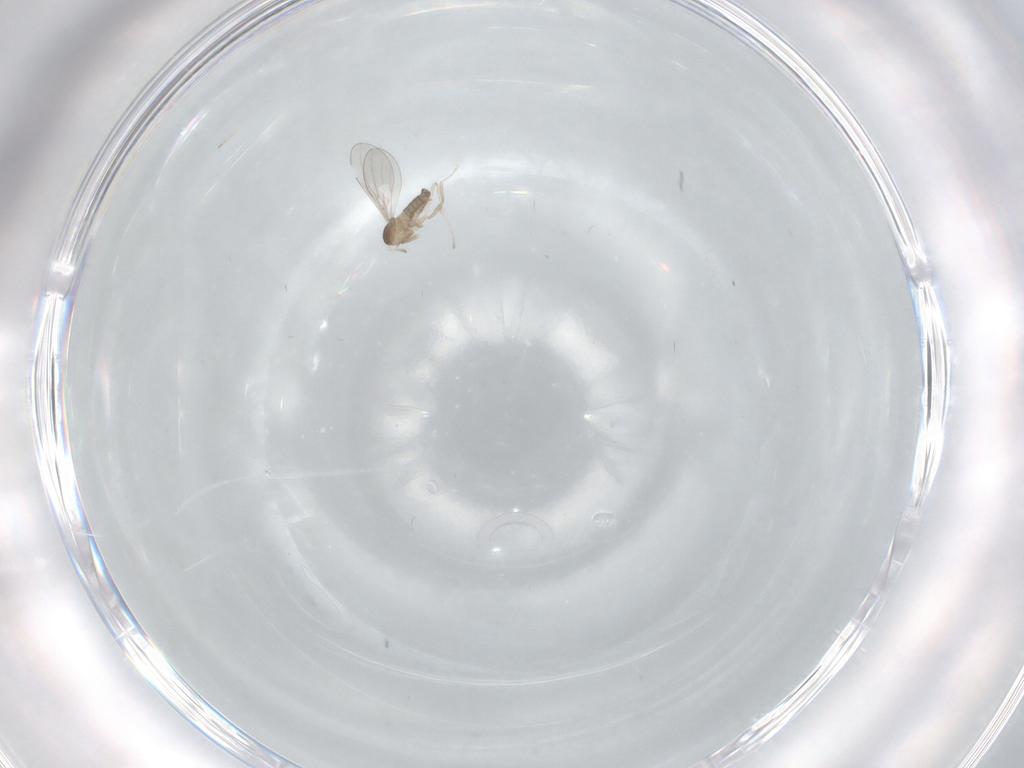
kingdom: Animalia
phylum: Arthropoda
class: Insecta
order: Diptera
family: Cecidomyiidae
